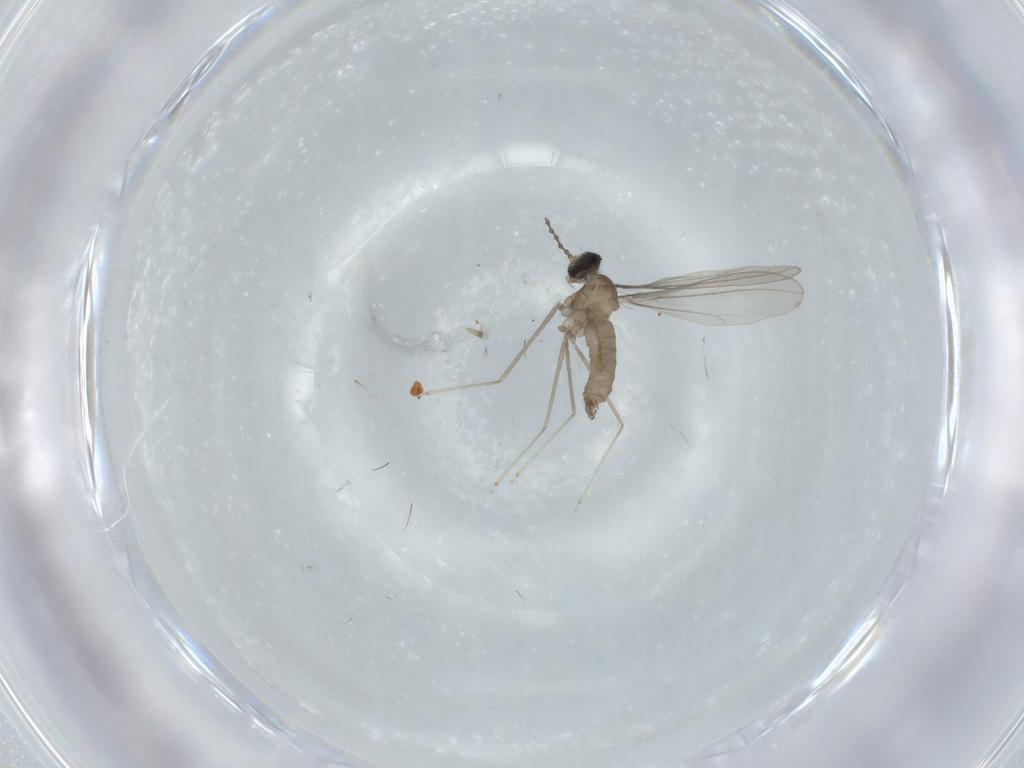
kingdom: Animalia
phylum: Arthropoda
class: Insecta
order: Diptera
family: Cecidomyiidae
